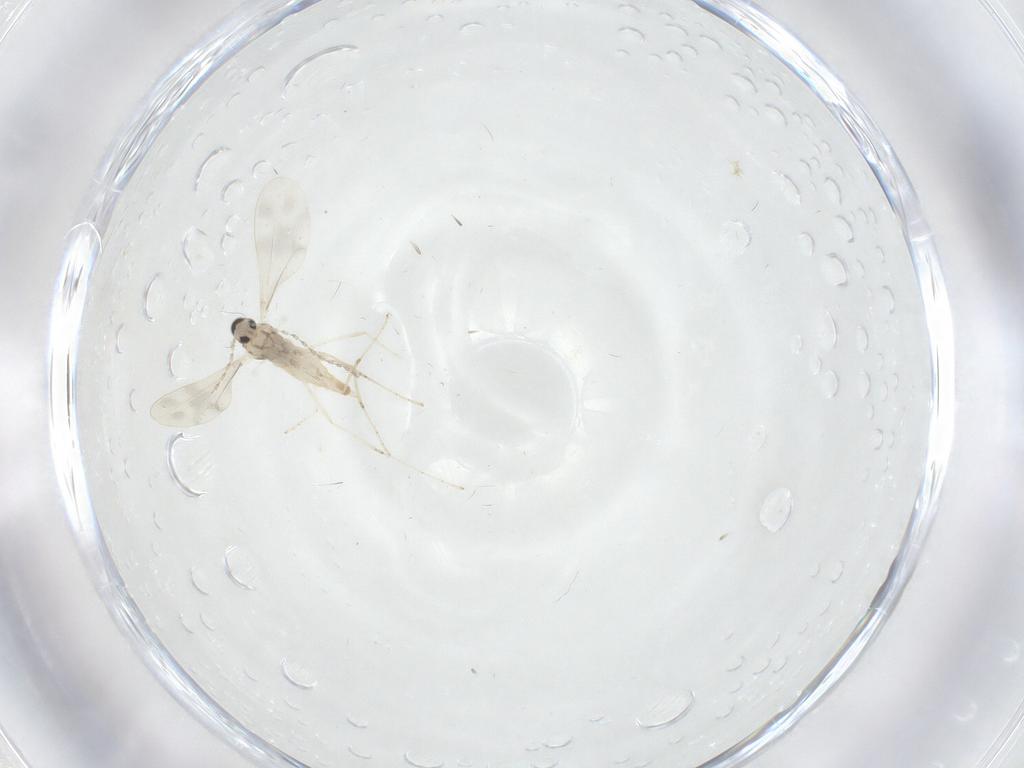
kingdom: Animalia
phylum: Arthropoda
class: Insecta
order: Diptera
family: Cecidomyiidae
